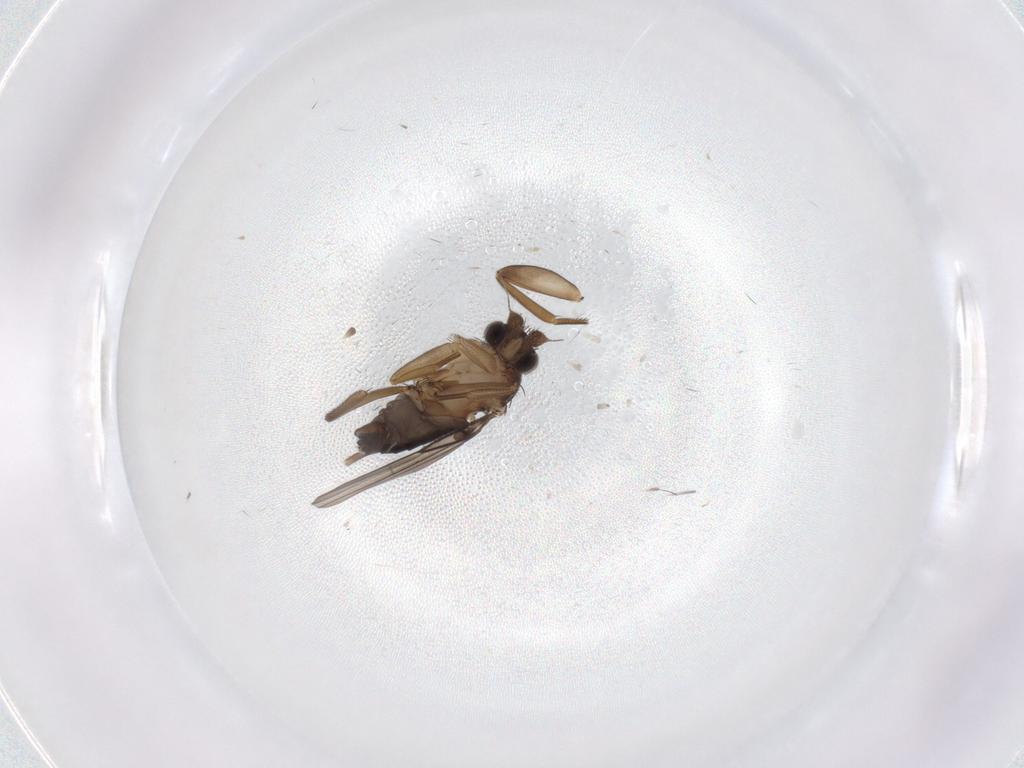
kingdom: Animalia
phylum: Arthropoda
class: Insecta
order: Diptera
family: Phoridae
